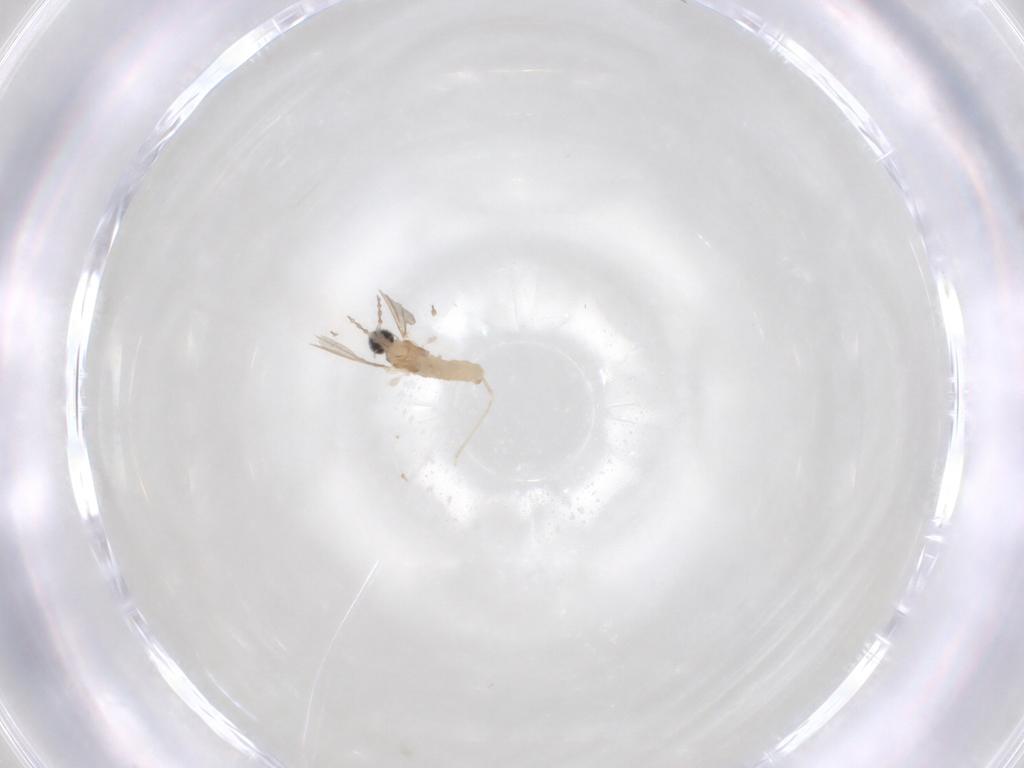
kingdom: Animalia
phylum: Arthropoda
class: Insecta
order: Diptera
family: Cecidomyiidae
